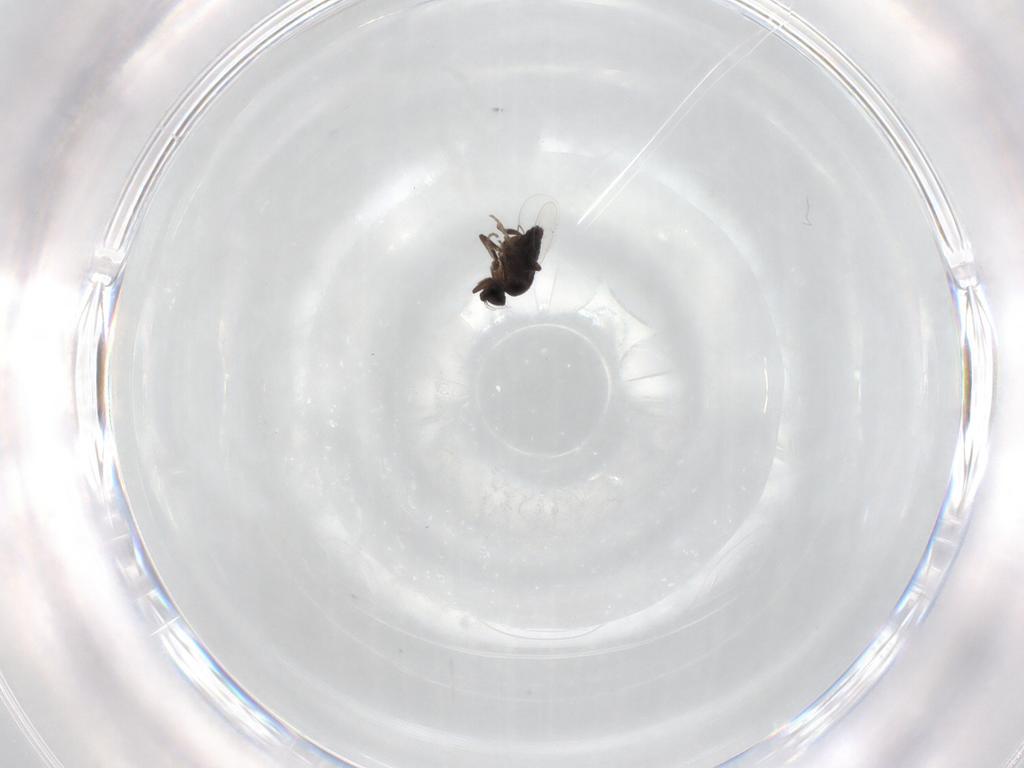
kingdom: Animalia
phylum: Arthropoda
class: Insecta
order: Diptera
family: Phoridae
